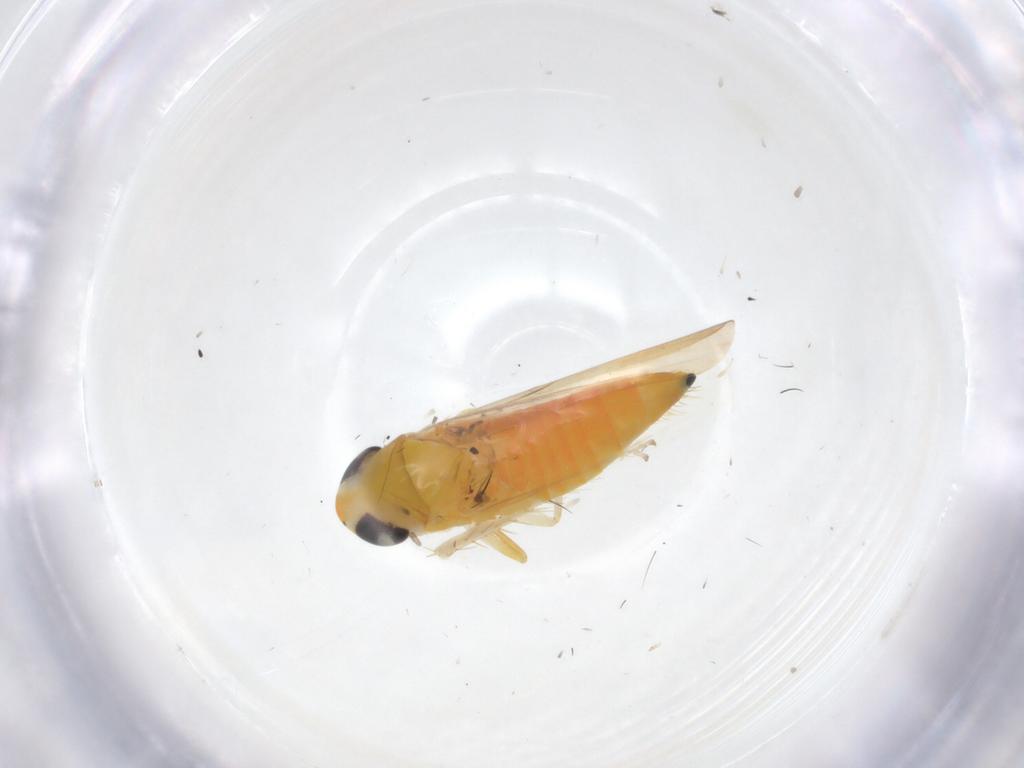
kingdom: Animalia
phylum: Arthropoda
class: Insecta
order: Hemiptera
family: Cicadellidae
